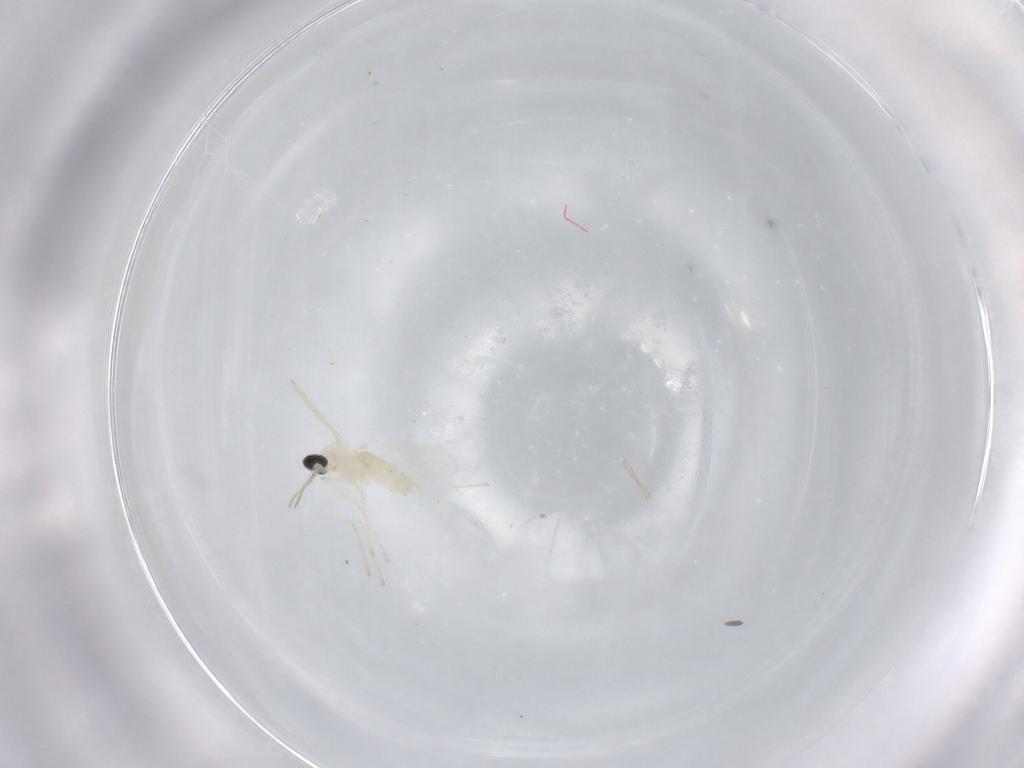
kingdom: Animalia
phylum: Arthropoda
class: Insecta
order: Diptera
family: Cecidomyiidae
